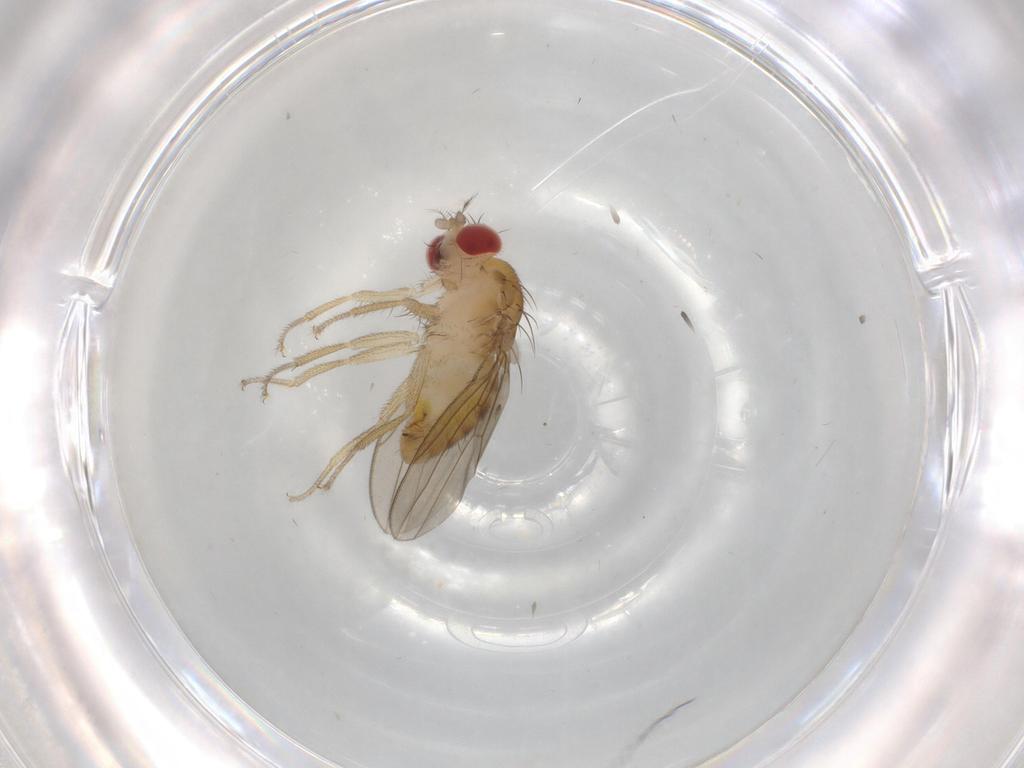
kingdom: Animalia
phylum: Arthropoda
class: Insecta
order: Diptera
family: Drosophilidae
